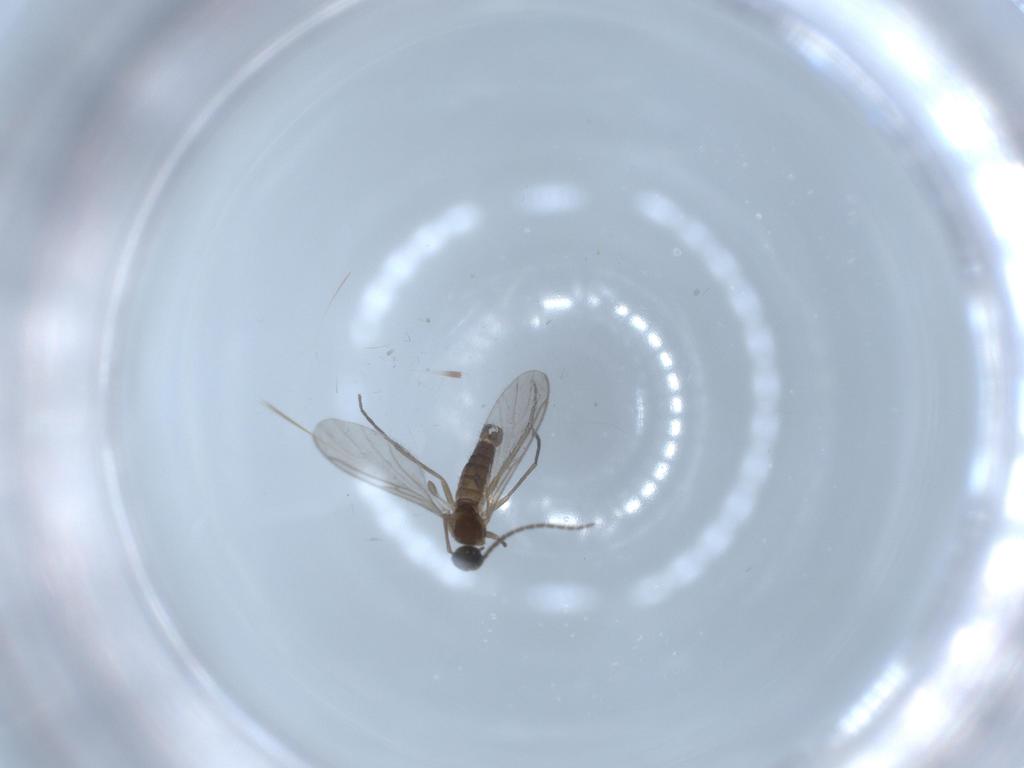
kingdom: Animalia
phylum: Arthropoda
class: Insecta
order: Diptera
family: Sciaridae
